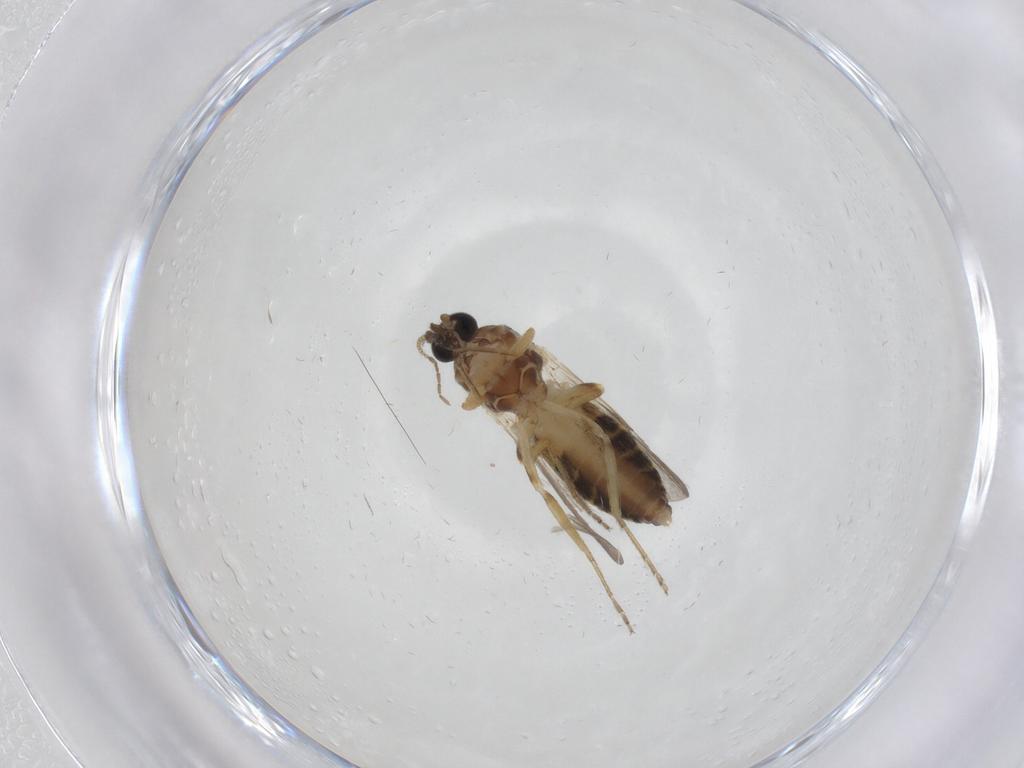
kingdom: Animalia
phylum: Arthropoda
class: Insecta
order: Diptera
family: Ceratopogonidae
